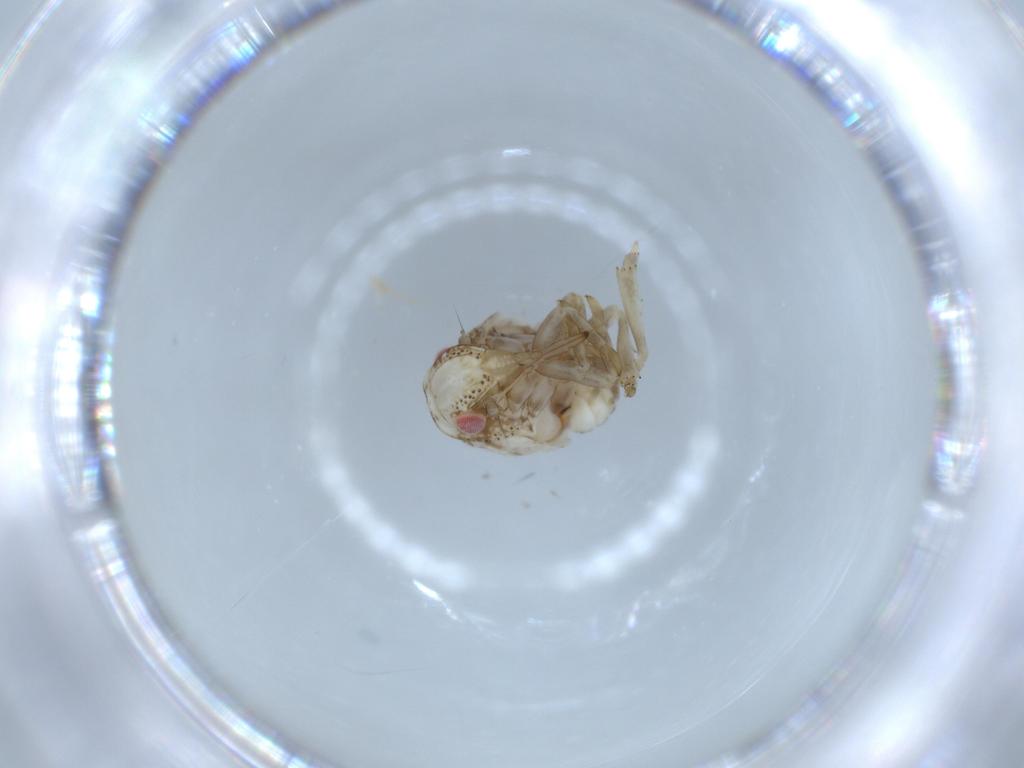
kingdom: Animalia
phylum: Arthropoda
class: Insecta
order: Hemiptera
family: Acanaloniidae
